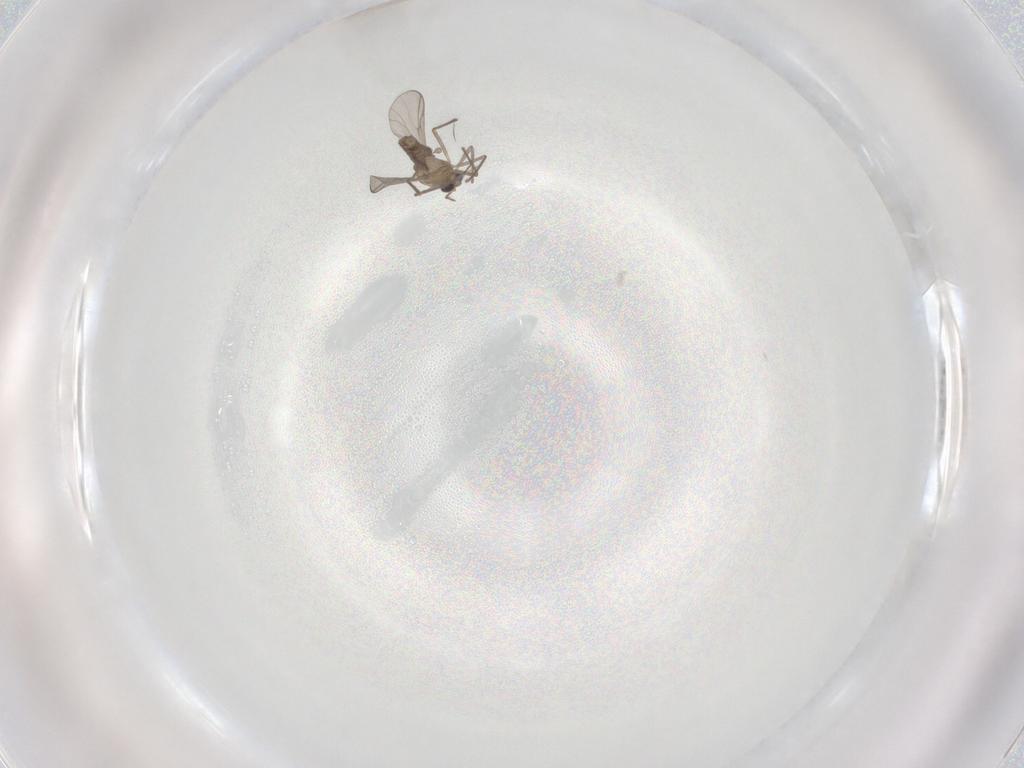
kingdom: Animalia
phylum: Arthropoda
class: Insecta
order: Diptera
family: Chironomidae
